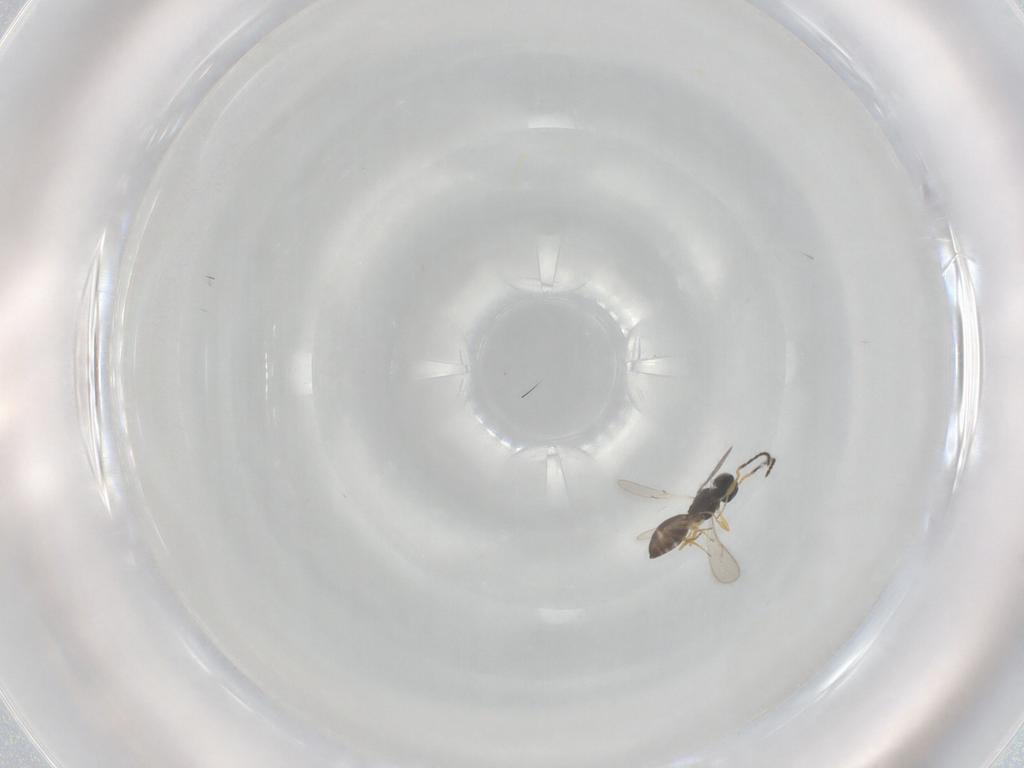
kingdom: Animalia
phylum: Arthropoda
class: Insecta
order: Hymenoptera
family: Scelionidae
